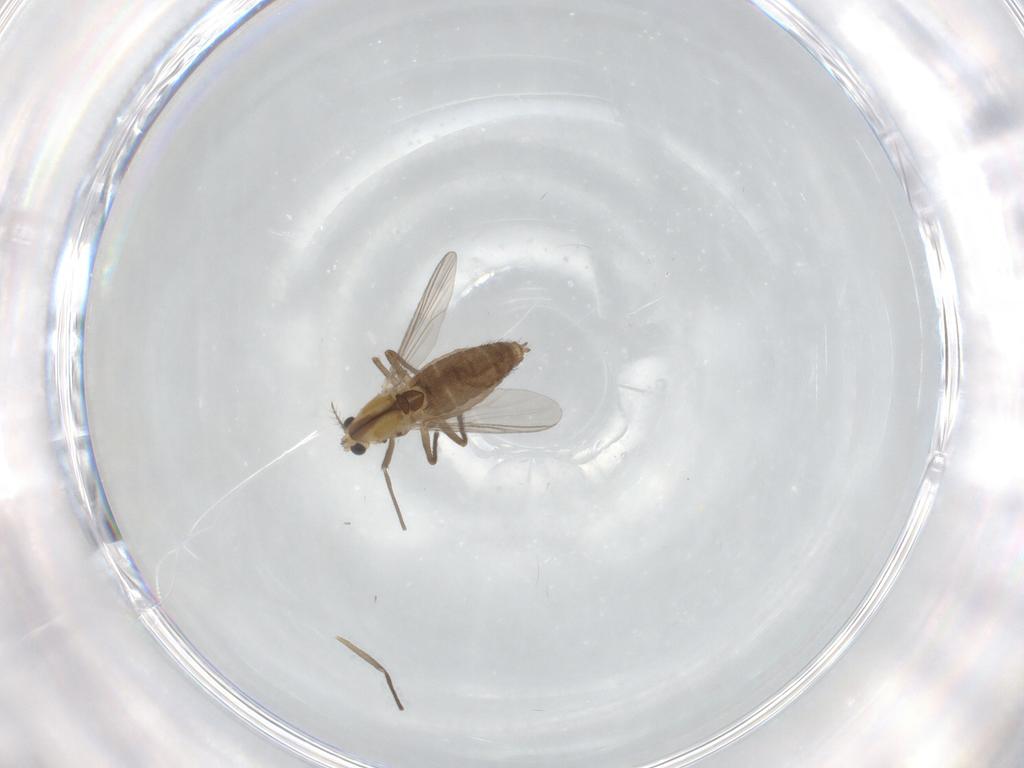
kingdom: Animalia
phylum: Arthropoda
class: Insecta
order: Diptera
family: Chironomidae
